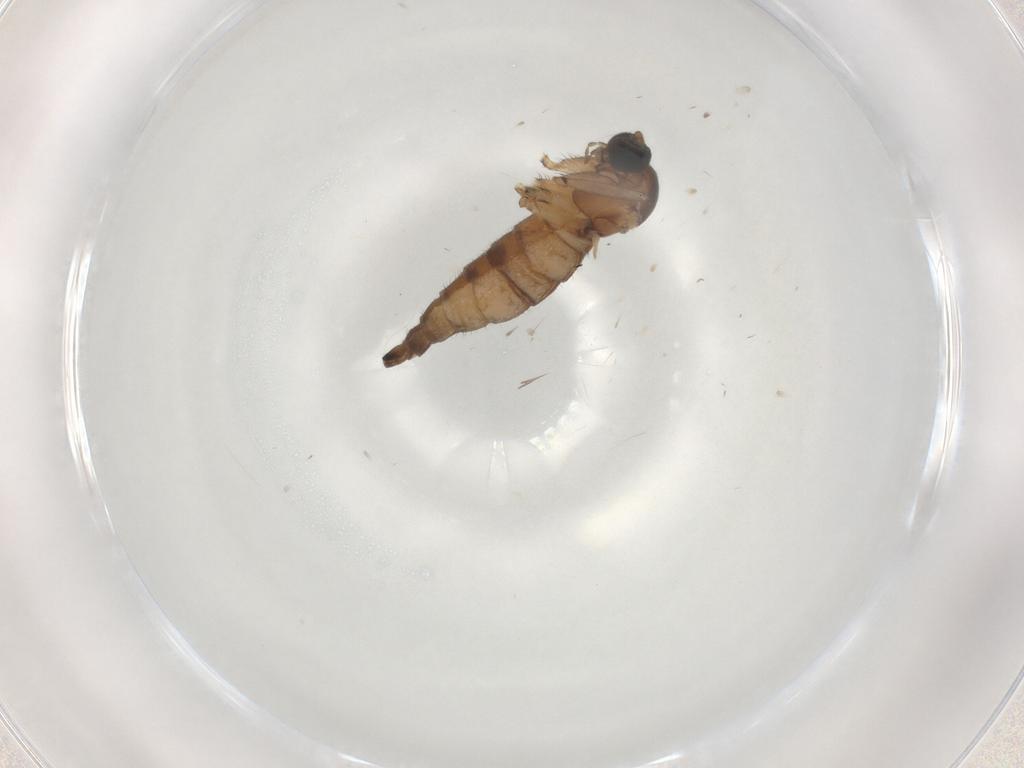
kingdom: Animalia
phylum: Arthropoda
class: Insecta
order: Diptera
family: Sciaridae
